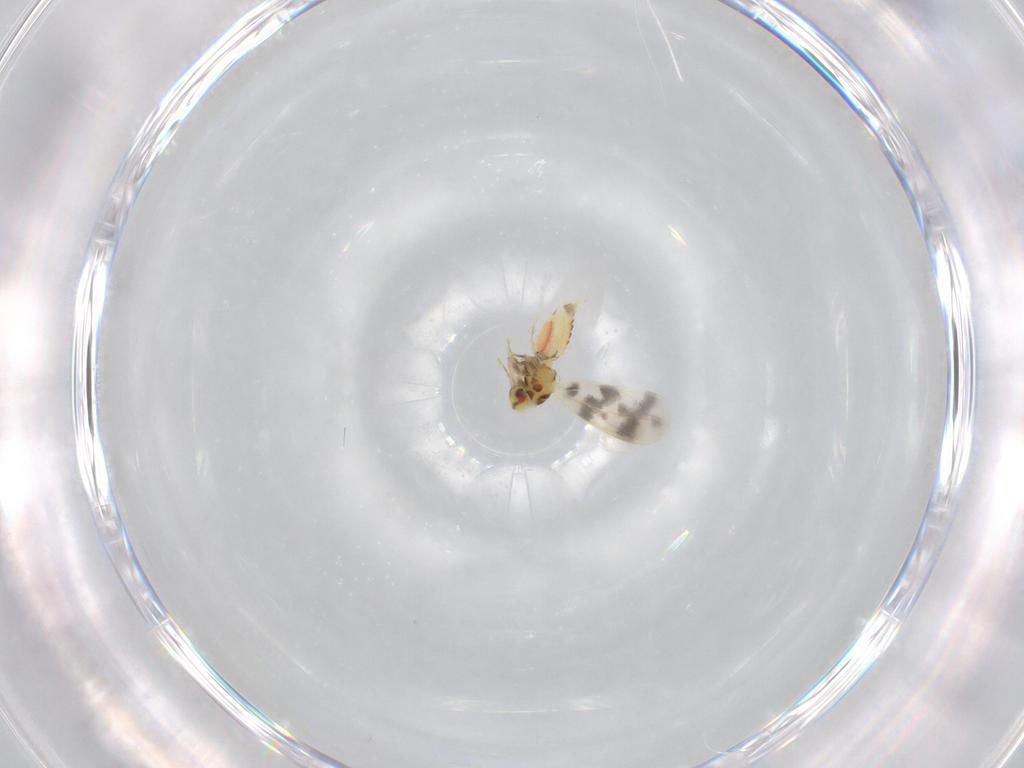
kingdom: Animalia
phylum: Arthropoda
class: Insecta
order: Hemiptera
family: Aleyrodidae
